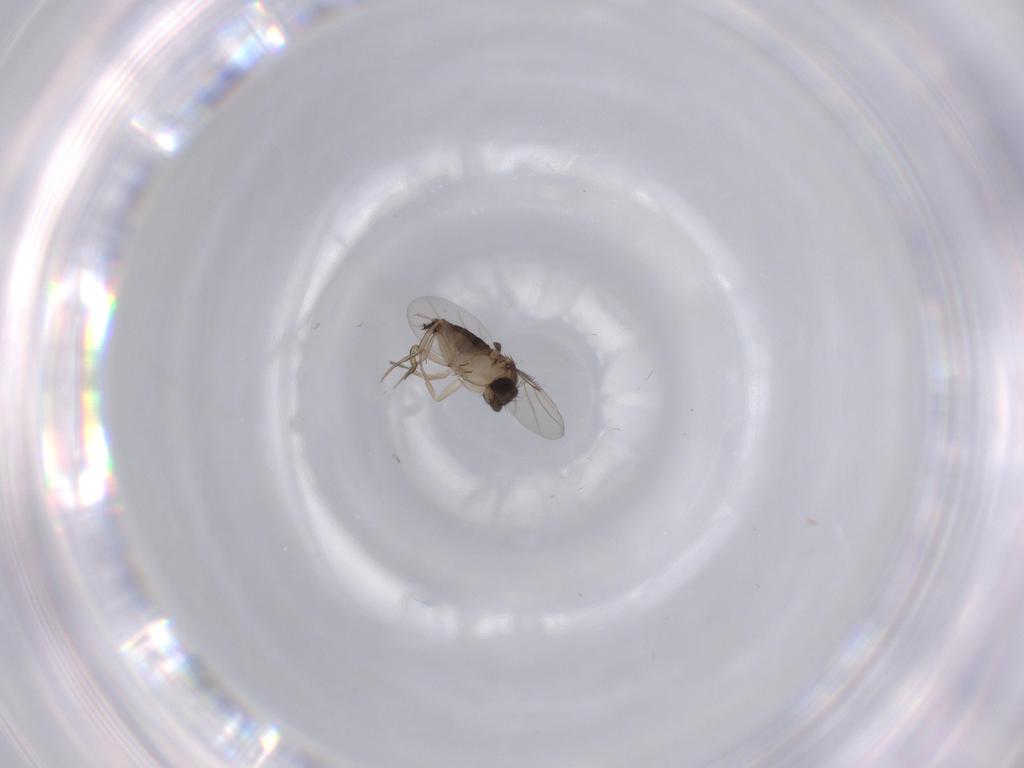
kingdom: Animalia
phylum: Arthropoda
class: Insecta
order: Diptera
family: Phoridae
